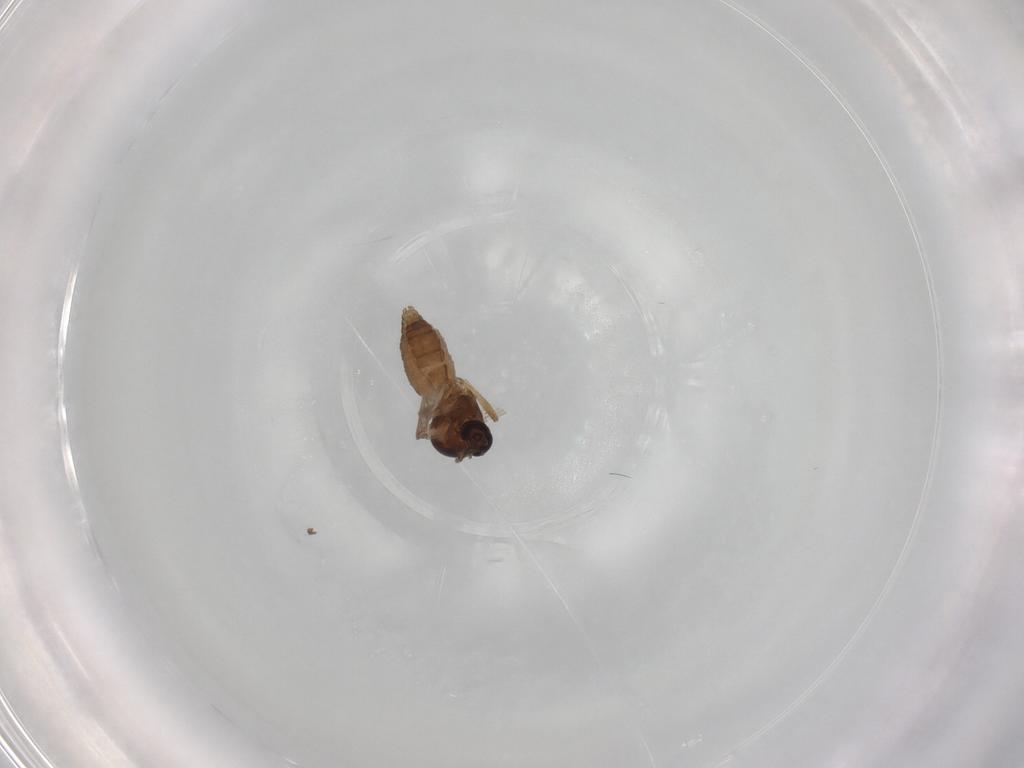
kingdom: Animalia
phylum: Arthropoda
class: Insecta
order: Diptera
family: Ceratopogonidae
